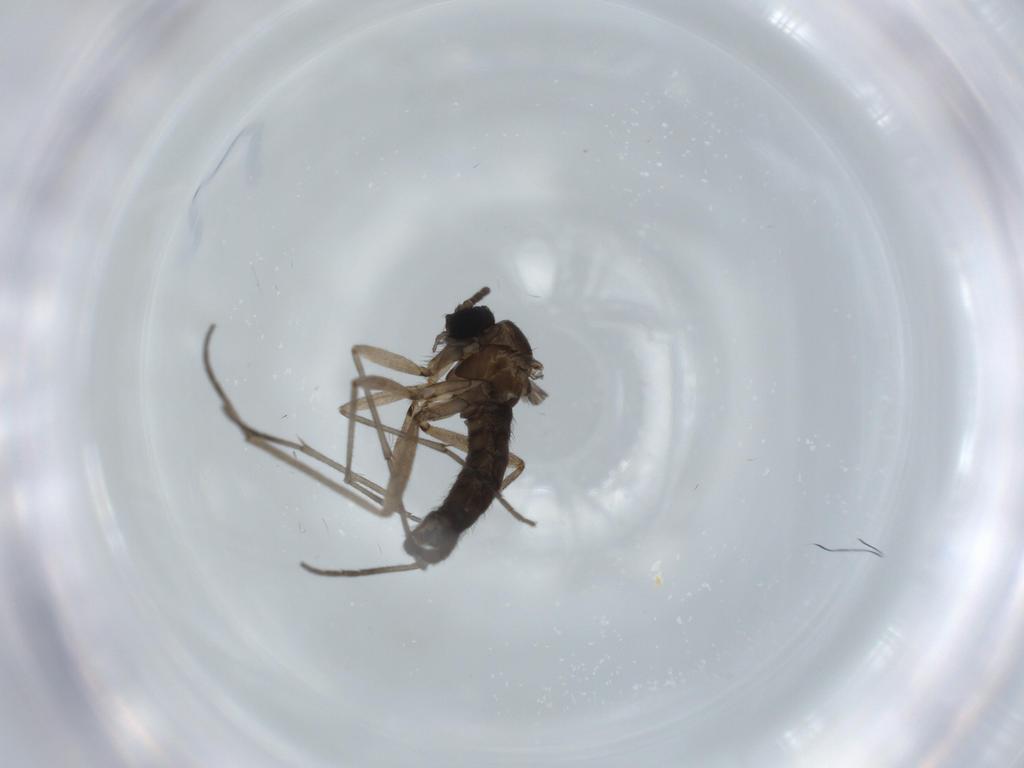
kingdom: Animalia
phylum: Arthropoda
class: Insecta
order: Diptera
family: Sciaridae
